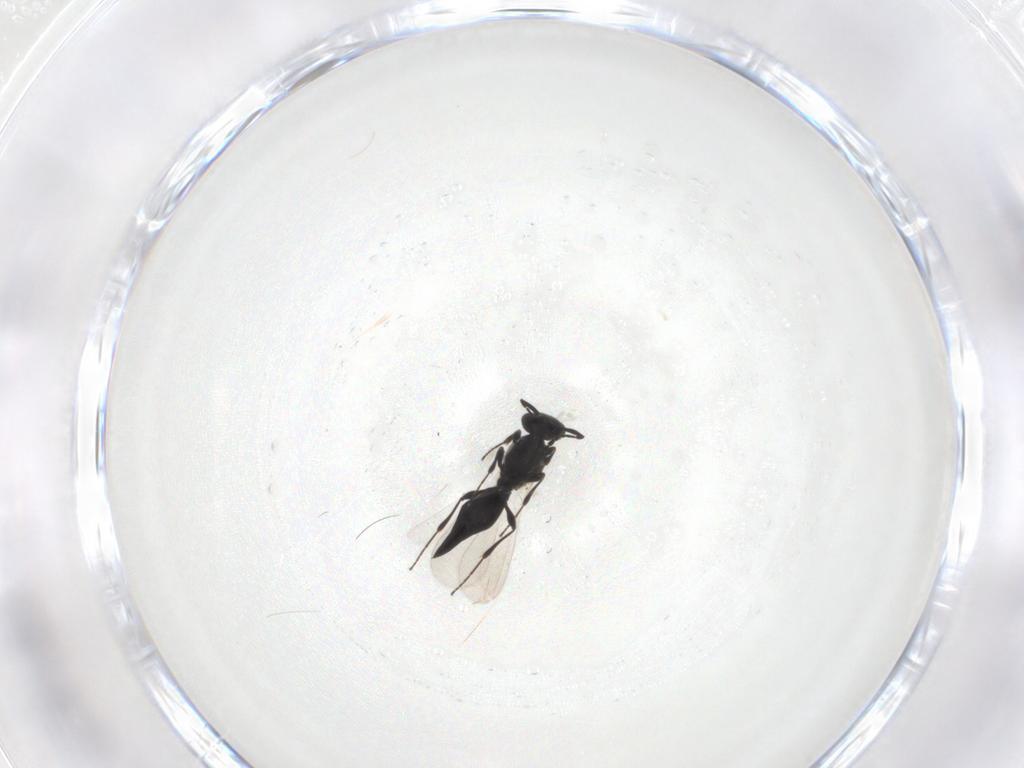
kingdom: Animalia
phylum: Arthropoda
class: Insecta
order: Hymenoptera
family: Platygastridae
